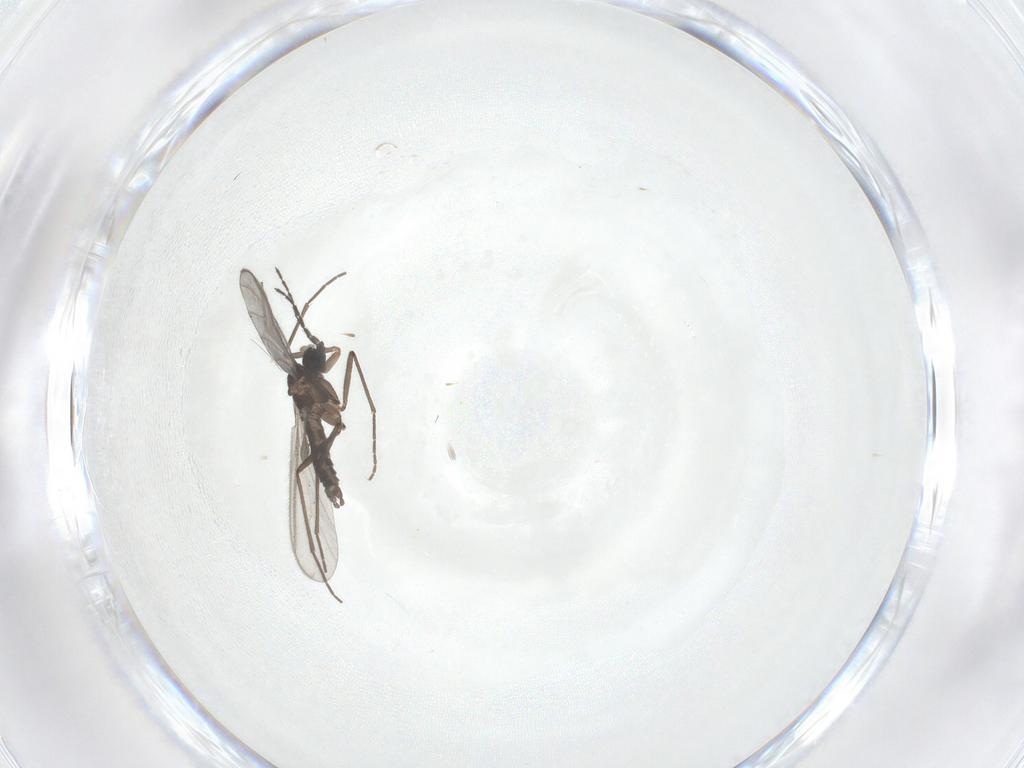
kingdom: Animalia
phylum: Arthropoda
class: Insecta
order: Diptera
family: Sciaridae
